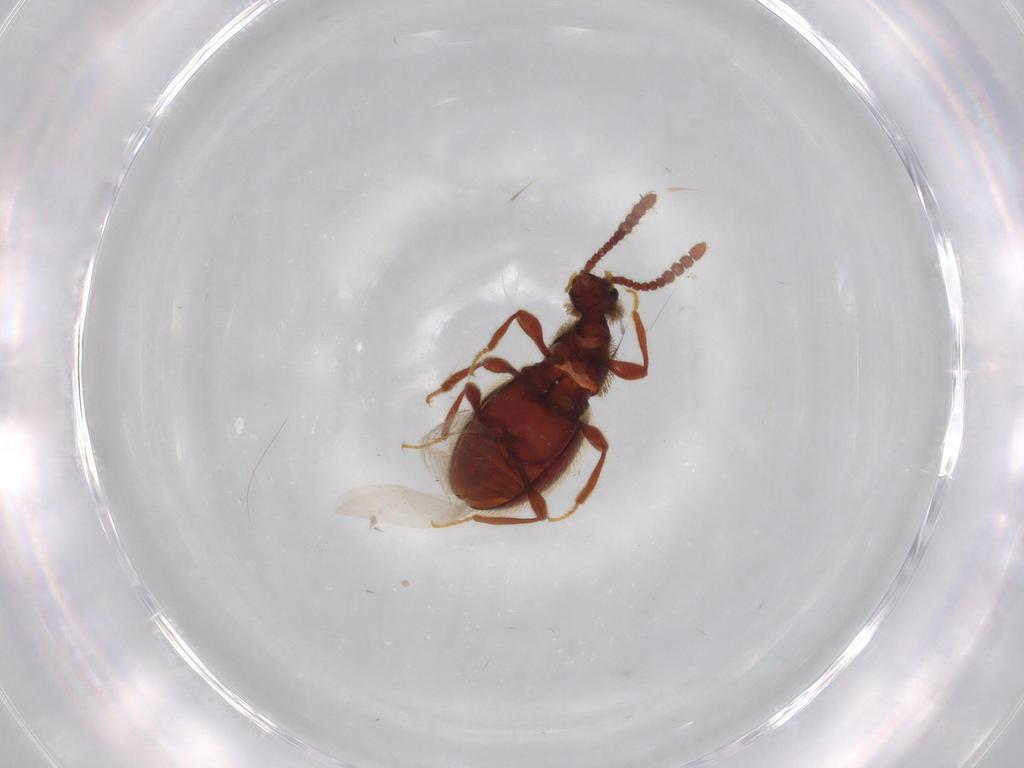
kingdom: Animalia
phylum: Arthropoda
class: Insecta
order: Coleoptera
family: Staphylinidae
